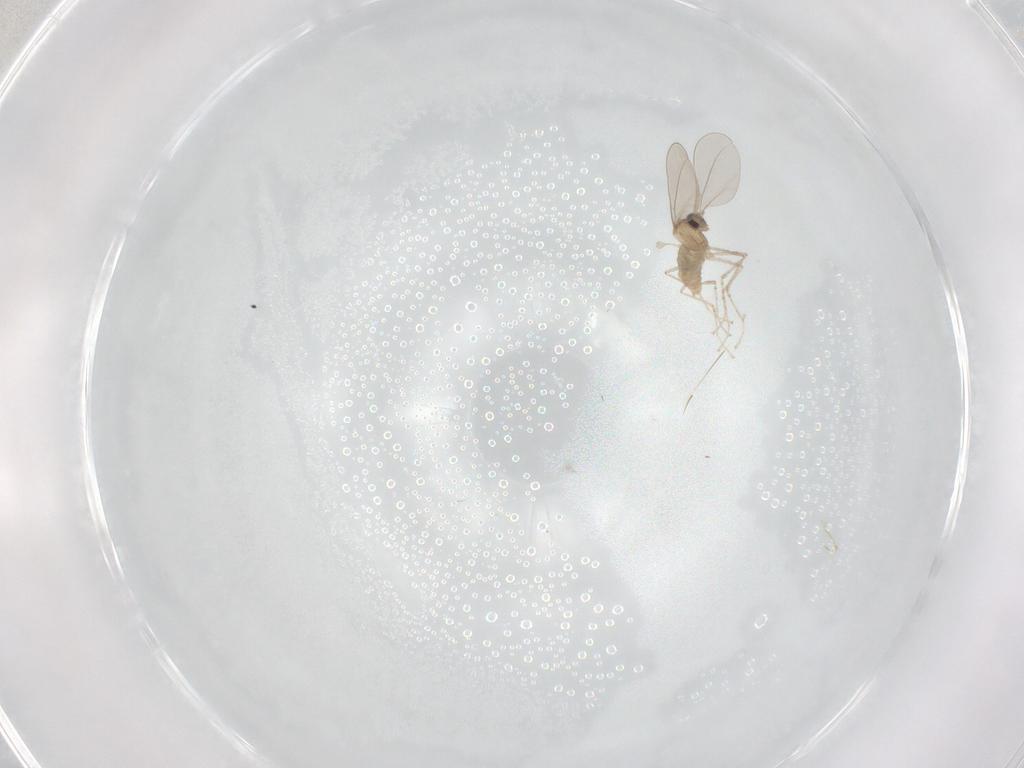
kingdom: Animalia
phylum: Arthropoda
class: Insecta
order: Diptera
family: Cecidomyiidae
